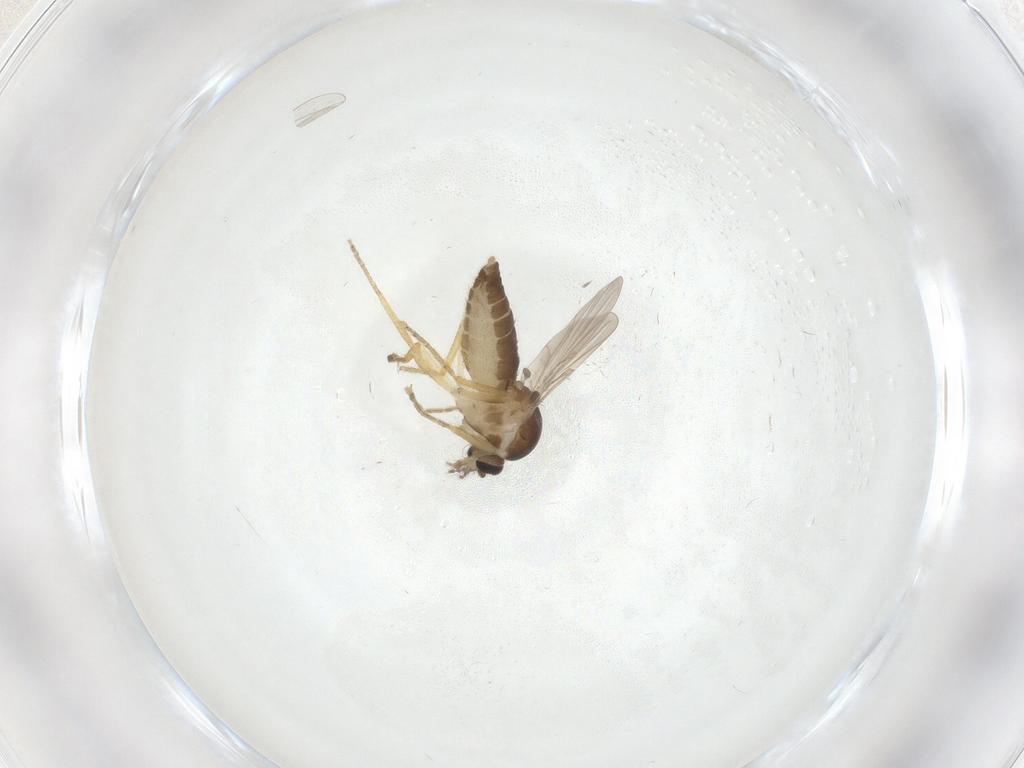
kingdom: Animalia
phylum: Arthropoda
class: Insecta
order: Diptera
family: Ceratopogonidae
